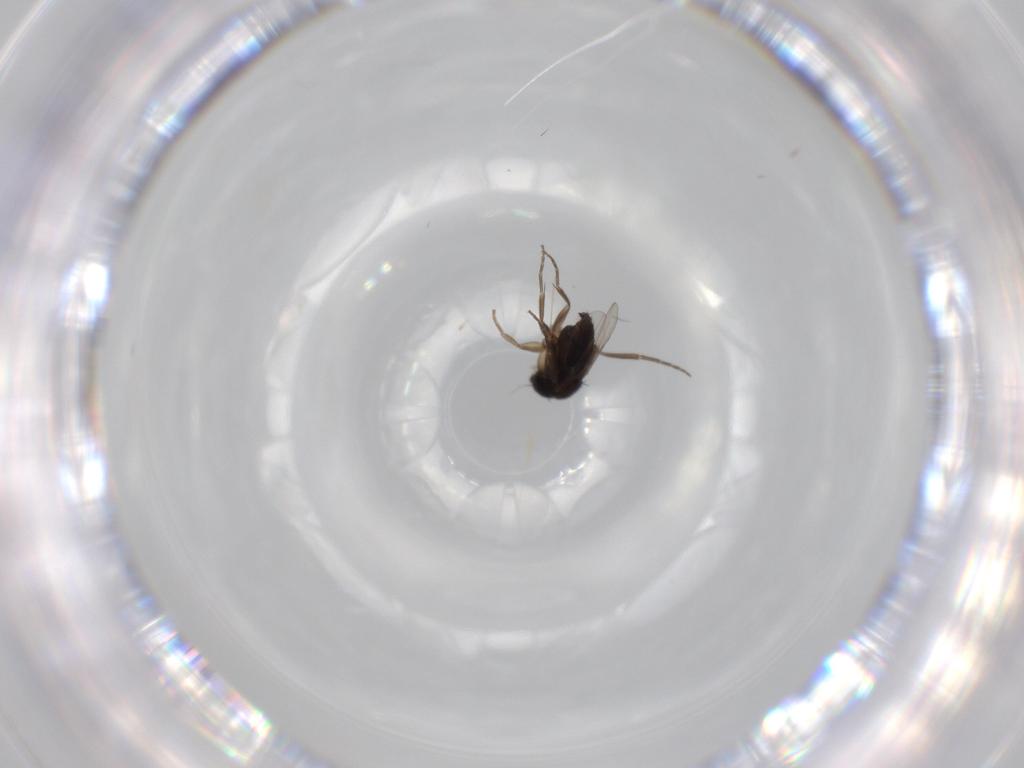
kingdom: Animalia
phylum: Arthropoda
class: Insecta
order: Diptera
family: Phoridae
